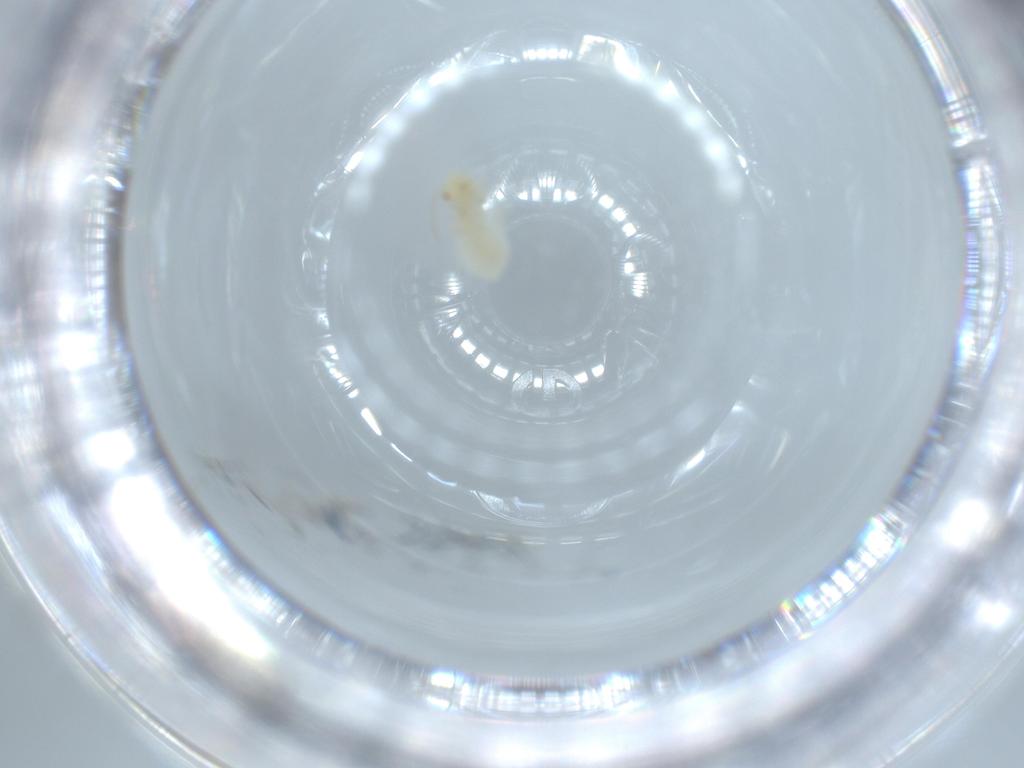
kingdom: Animalia
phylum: Arthropoda
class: Insecta
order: Psocodea
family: Caeciliusidae
